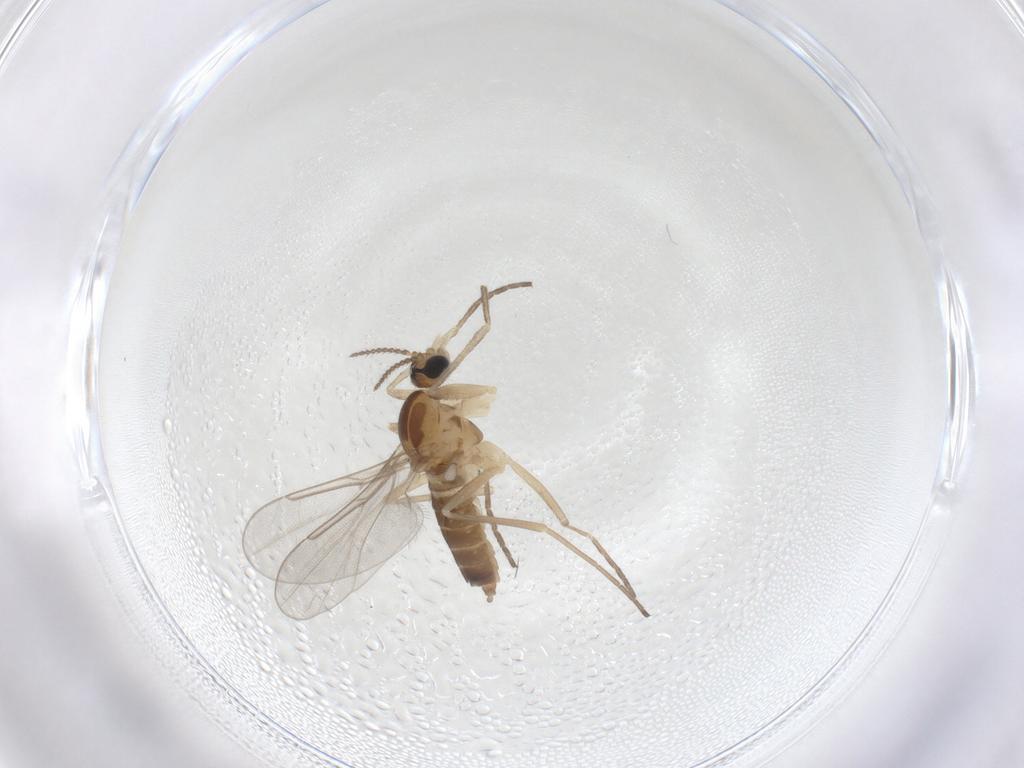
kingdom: Animalia
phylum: Arthropoda
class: Insecta
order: Diptera
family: Cecidomyiidae
